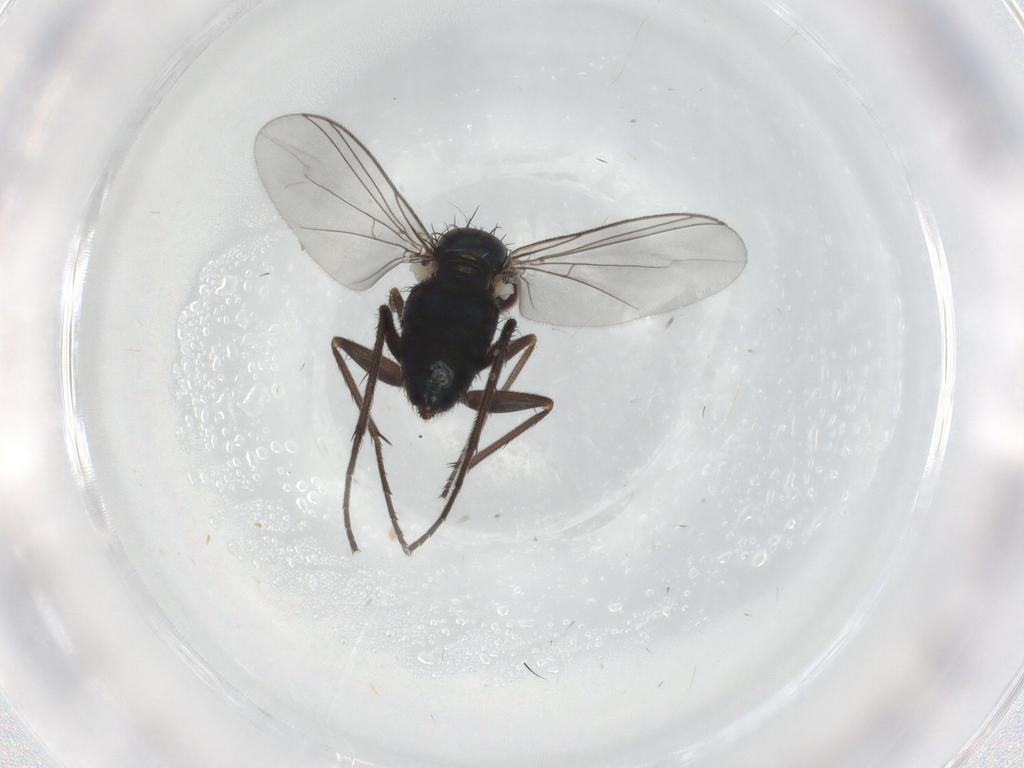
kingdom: Animalia
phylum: Arthropoda
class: Insecta
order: Diptera
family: Dolichopodidae
